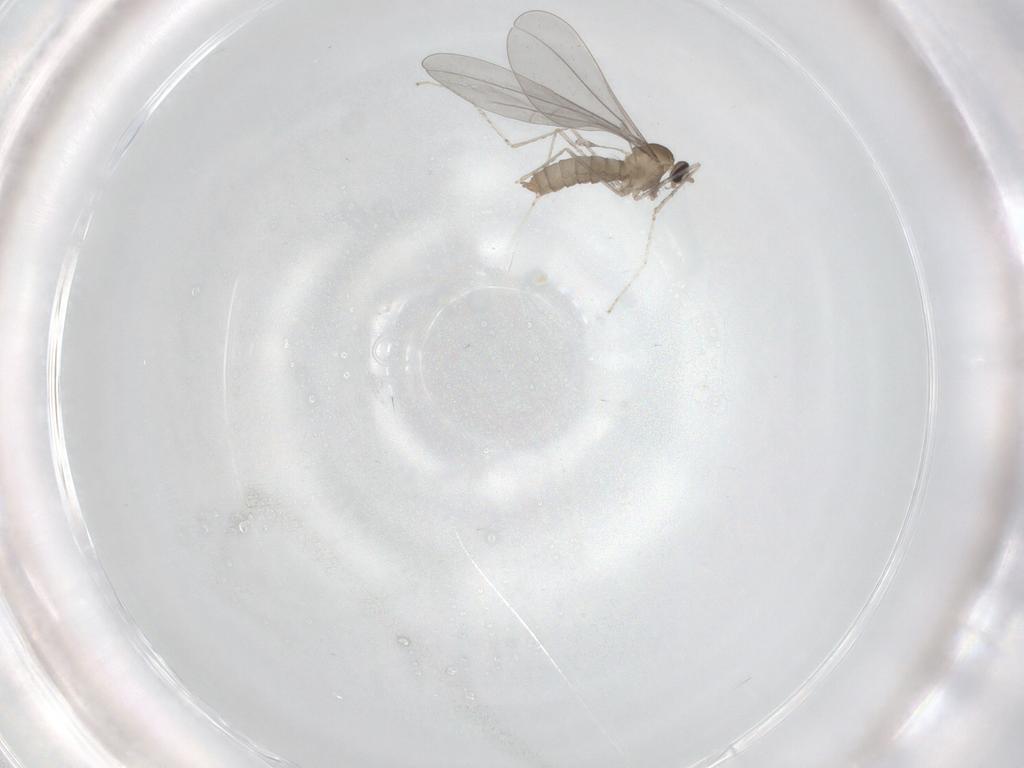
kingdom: Animalia
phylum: Arthropoda
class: Insecta
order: Diptera
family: Cecidomyiidae
